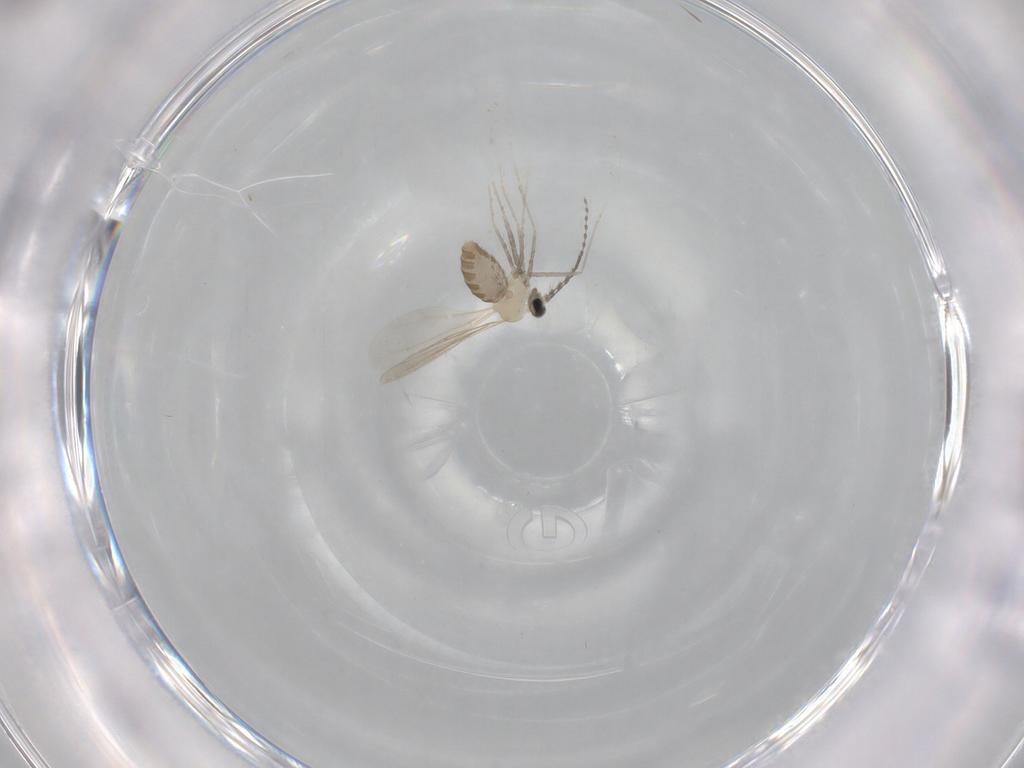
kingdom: Animalia
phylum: Arthropoda
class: Insecta
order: Diptera
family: Cecidomyiidae
